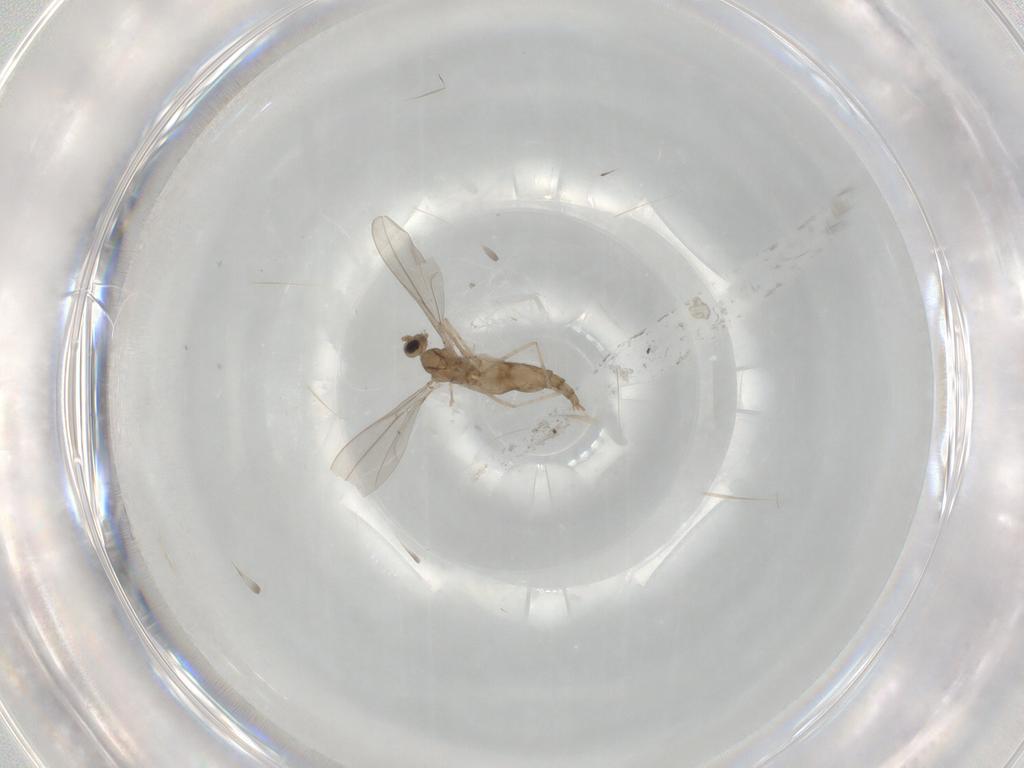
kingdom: Animalia
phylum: Arthropoda
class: Insecta
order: Diptera
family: Cecidomyiidae
